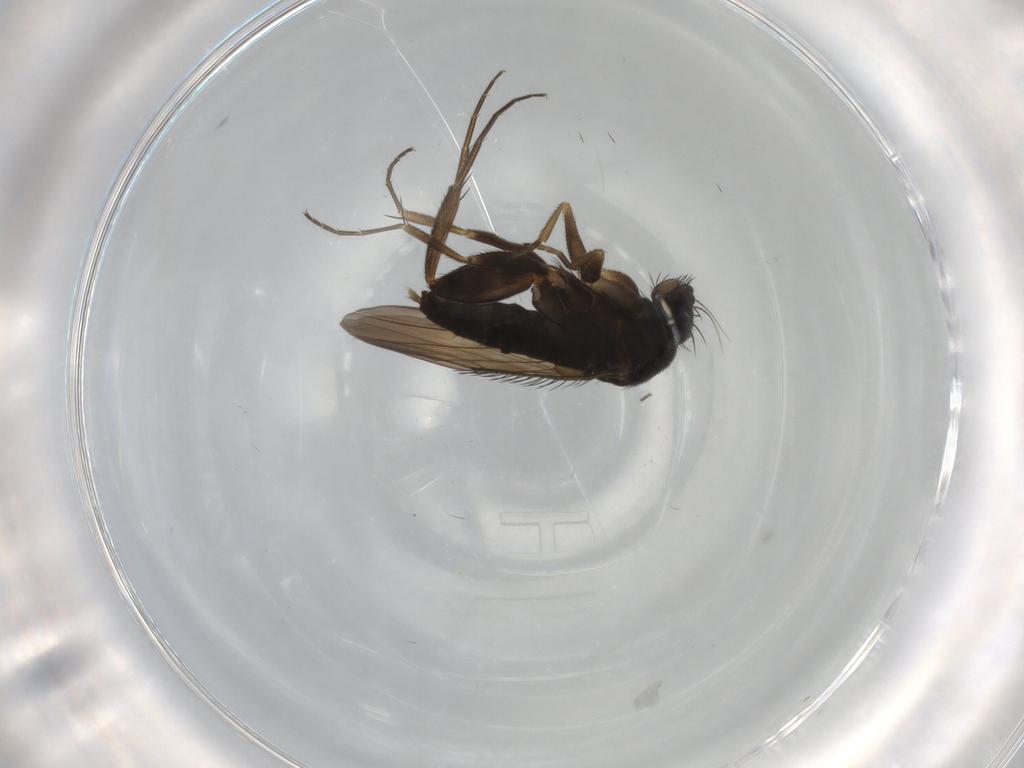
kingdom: Animalia
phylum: Arthropoda
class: Insecta
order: Diptera
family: Phoridae
